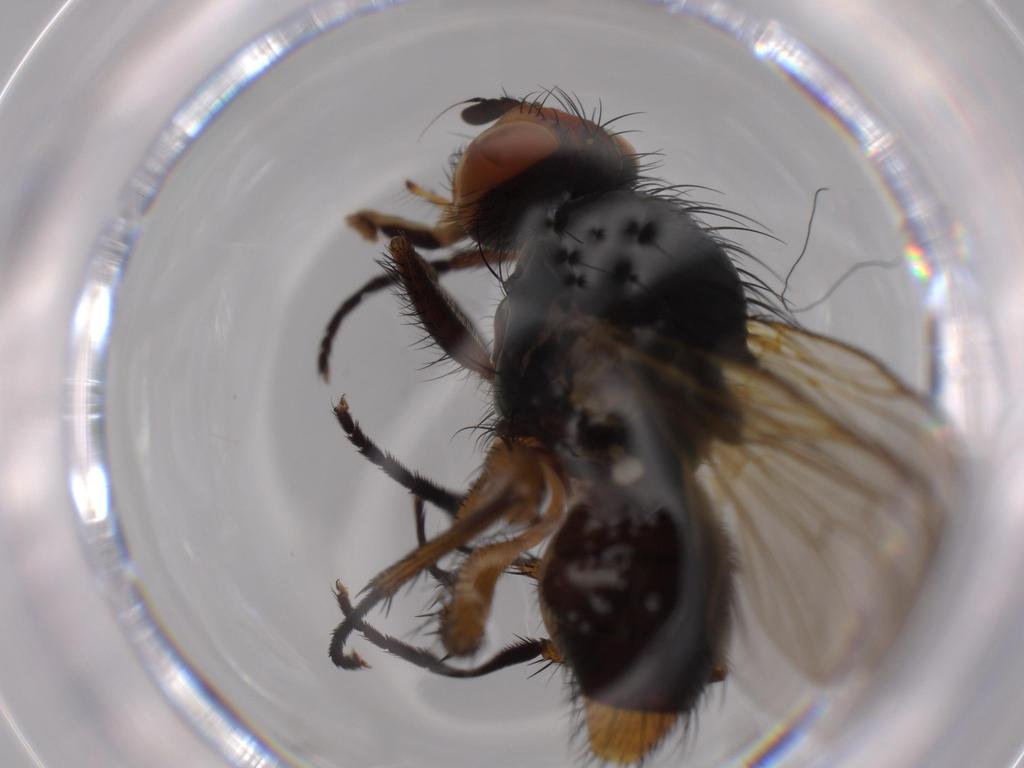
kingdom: Animalia
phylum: Arthropoda
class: Insecta
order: Diptera
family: Anthomyiidae
